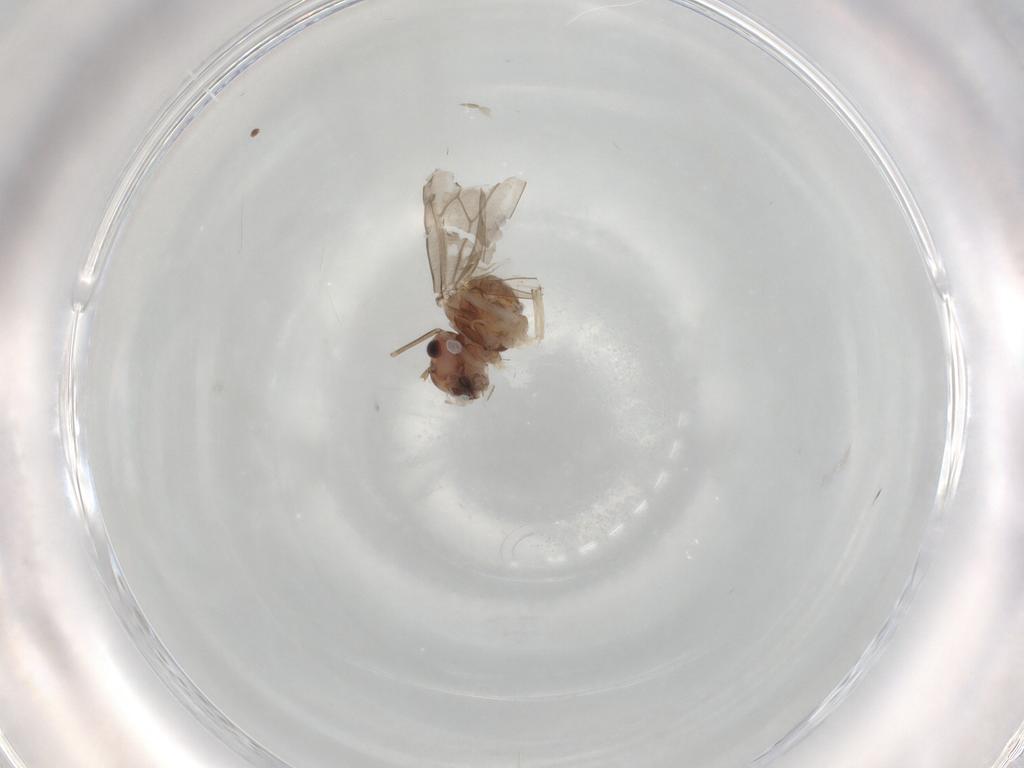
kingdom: Animalia
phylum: Arthropoda
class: Insecta
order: Psocodea
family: Peripsocidae
